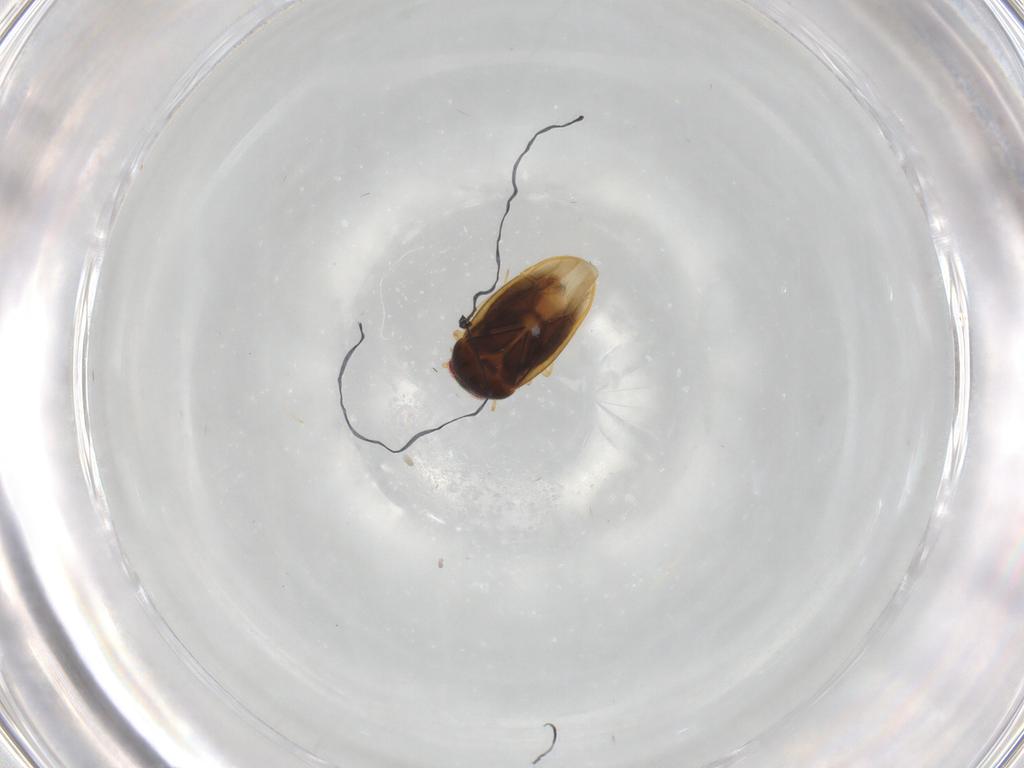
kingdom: Animalia
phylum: Arthropoda
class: Insecta
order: Hemiptera
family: Schizopteridae
